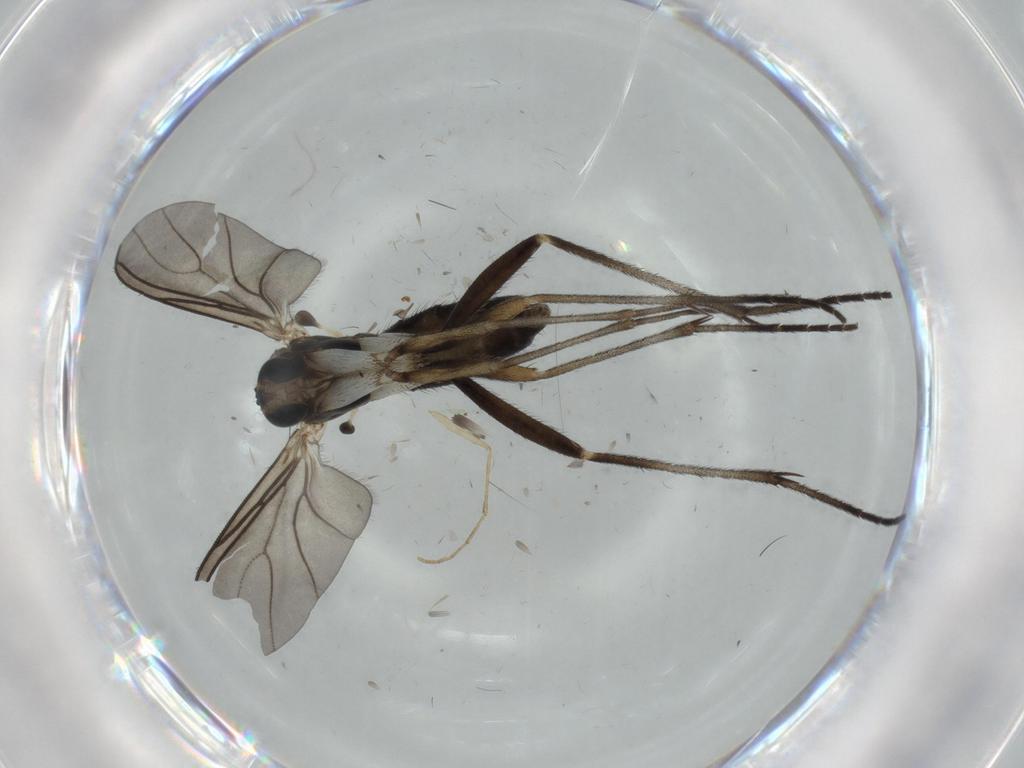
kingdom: Animalia
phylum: Arthropoda
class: Insecta
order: Diptera
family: Sciaridae
